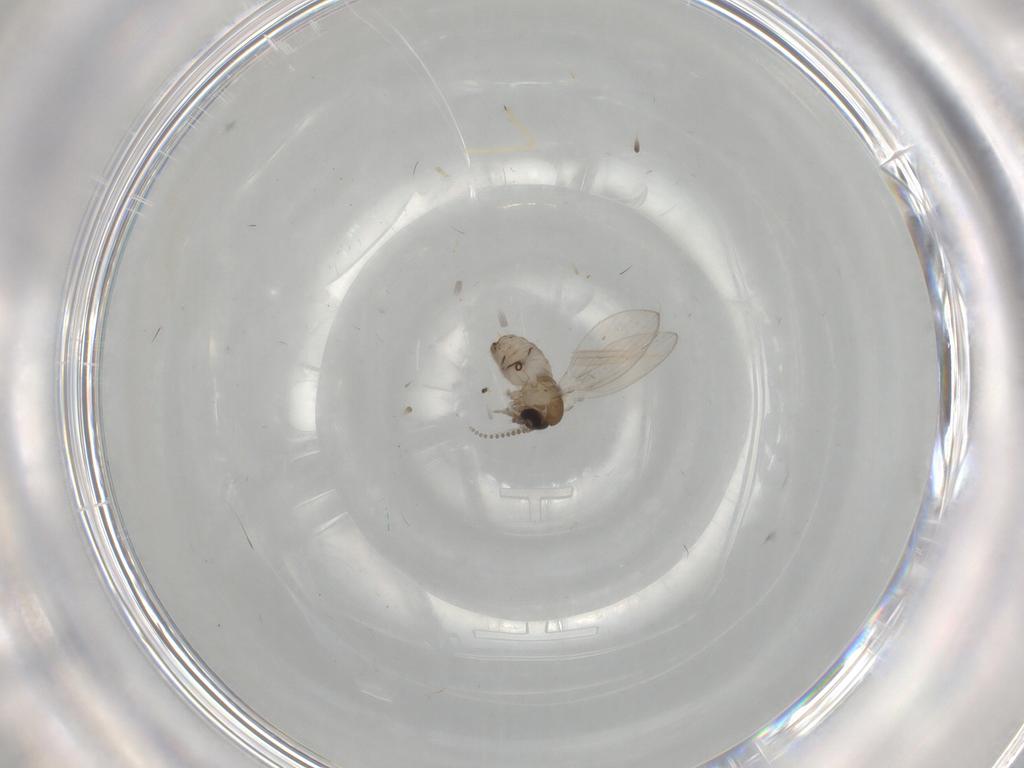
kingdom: Animalia
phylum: Arthropoda
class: Insecta
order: Diptera
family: Psychodidae
